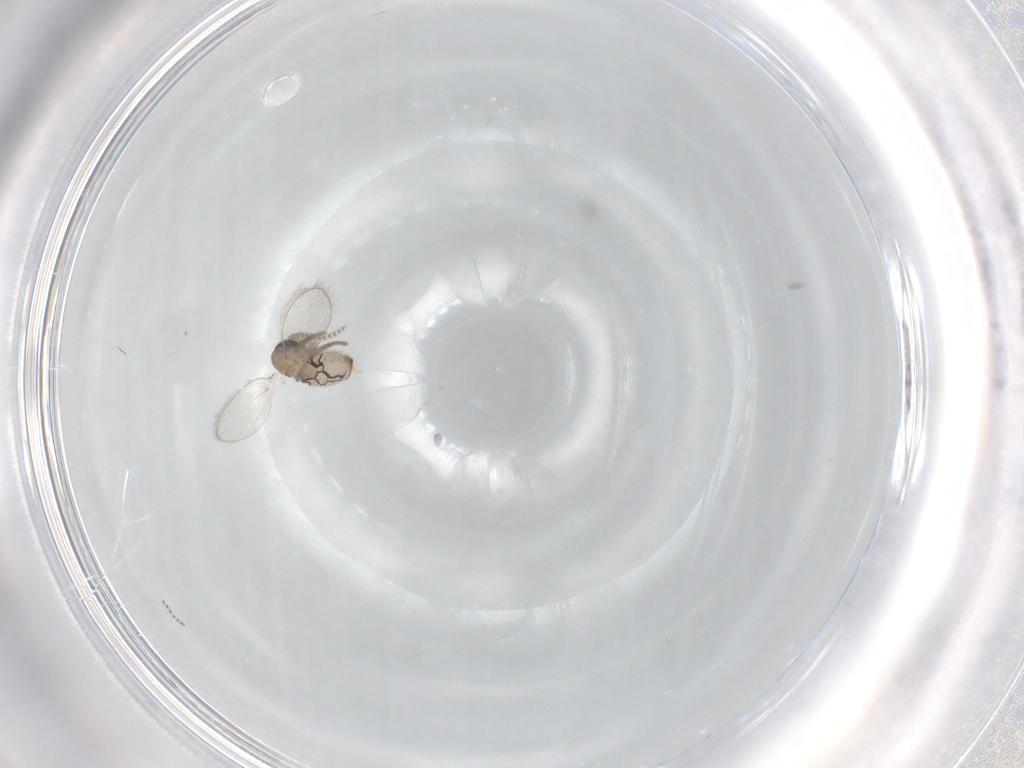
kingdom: Animalia
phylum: Arthropoda
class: Insecta
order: Diptera
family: Psychodidae
